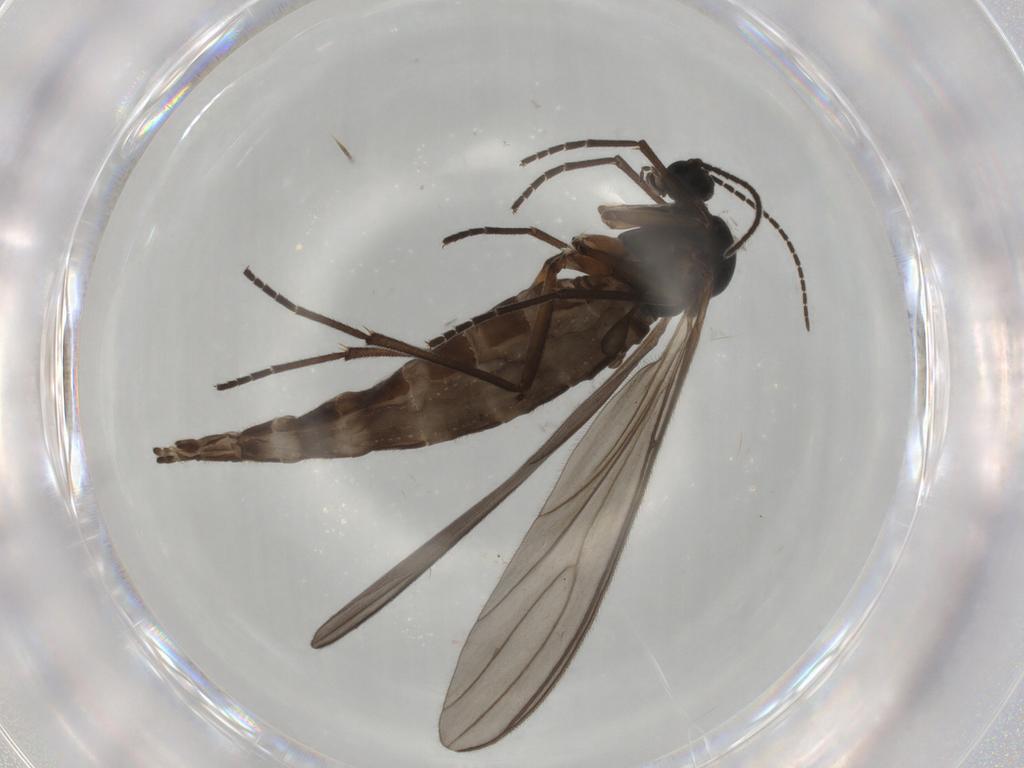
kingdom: Animalia
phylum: Arthropoda
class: Insecta
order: Diptera
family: Sciaridae
